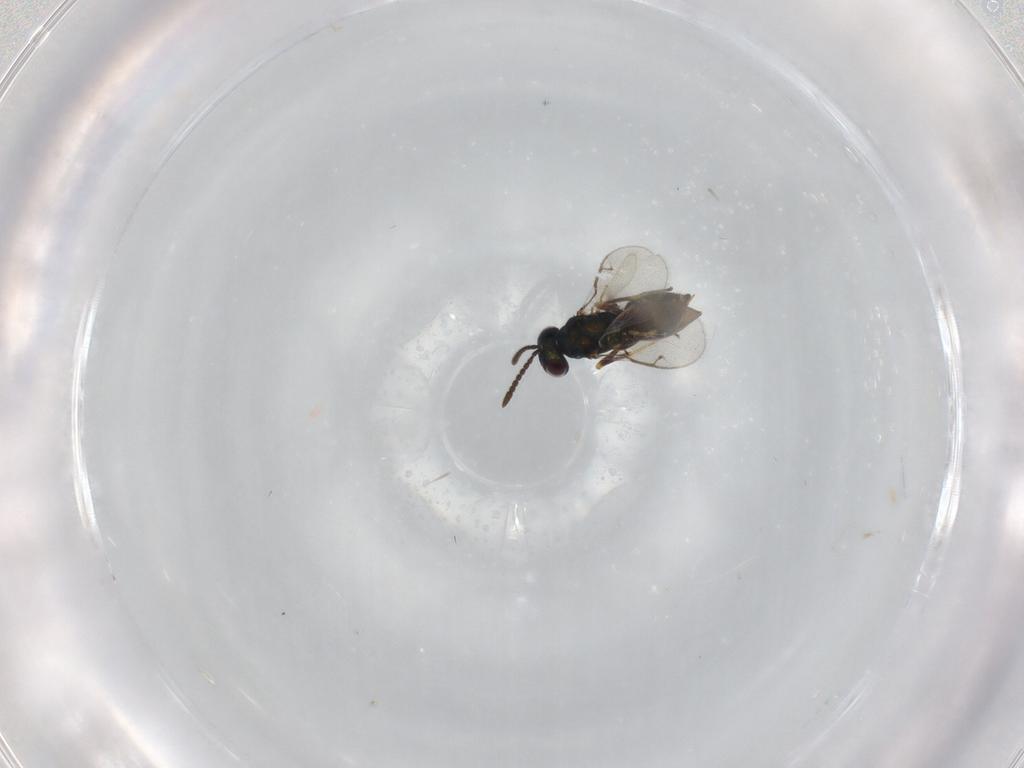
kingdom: Animalia
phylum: Arthropoda
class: Insecta
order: Hymenoptera
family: Pteromalidae
